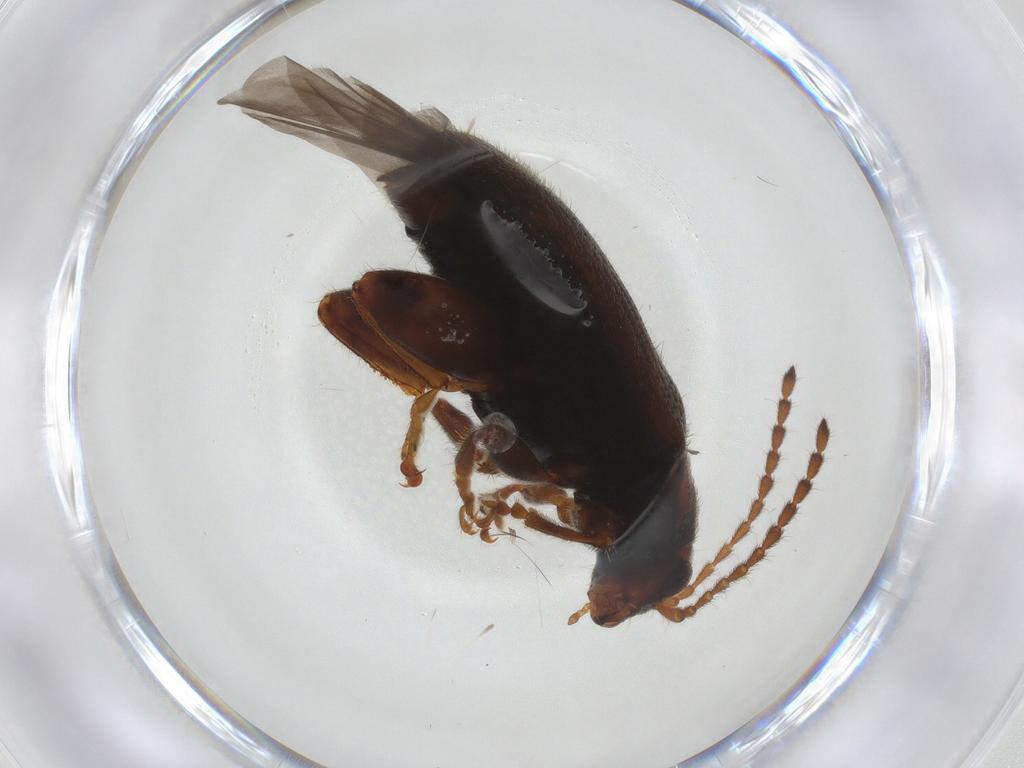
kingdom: Animalia
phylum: Arthropoda
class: Insecta
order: Coleoptera
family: Chrysomelidae
